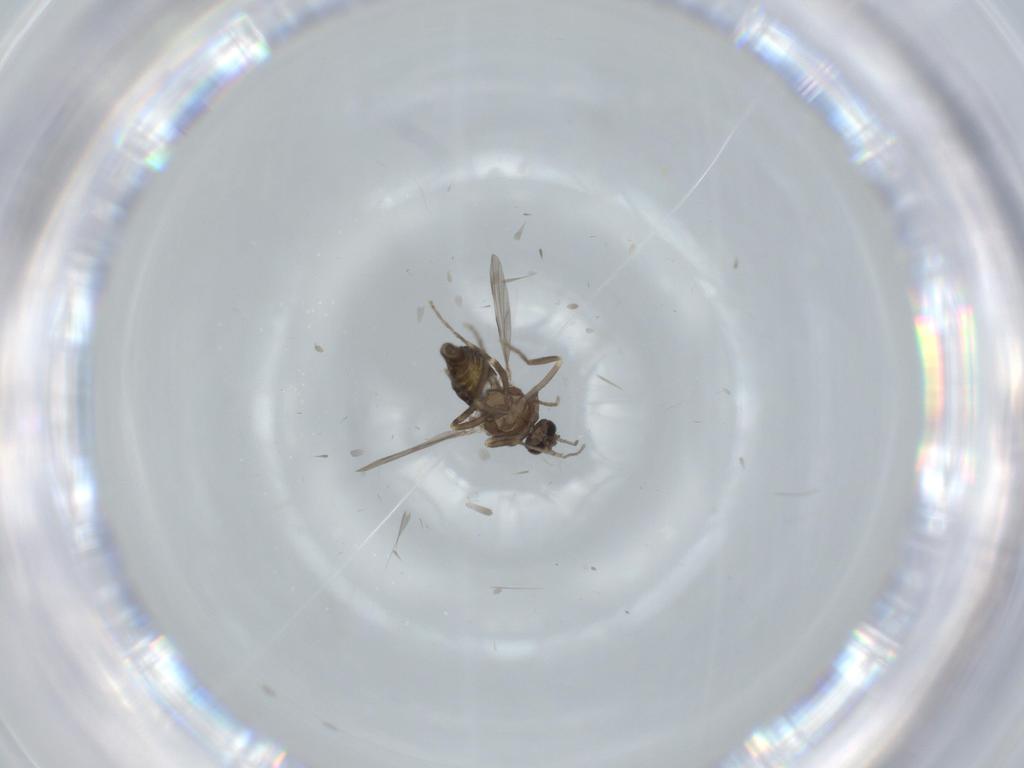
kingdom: Animalia
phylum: Arthropoda
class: Insecta
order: Diptera
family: Ceratopogonidae
